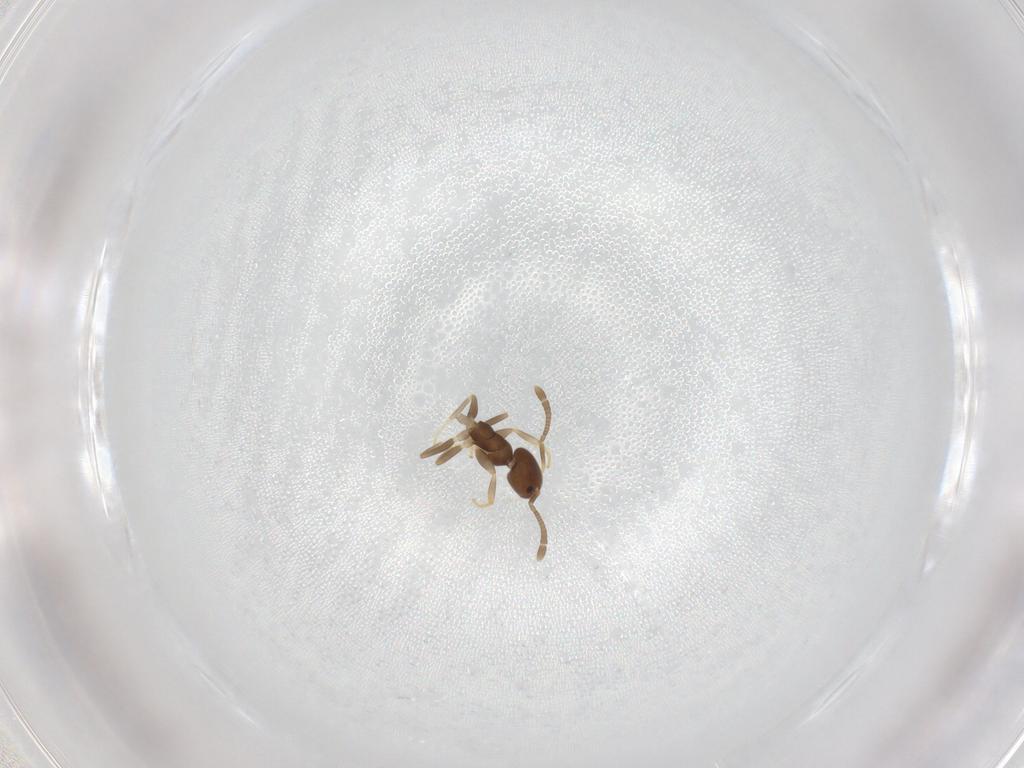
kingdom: Animalia
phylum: Arthropoda
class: Insecta
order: Hymenoptera
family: Formicidae
